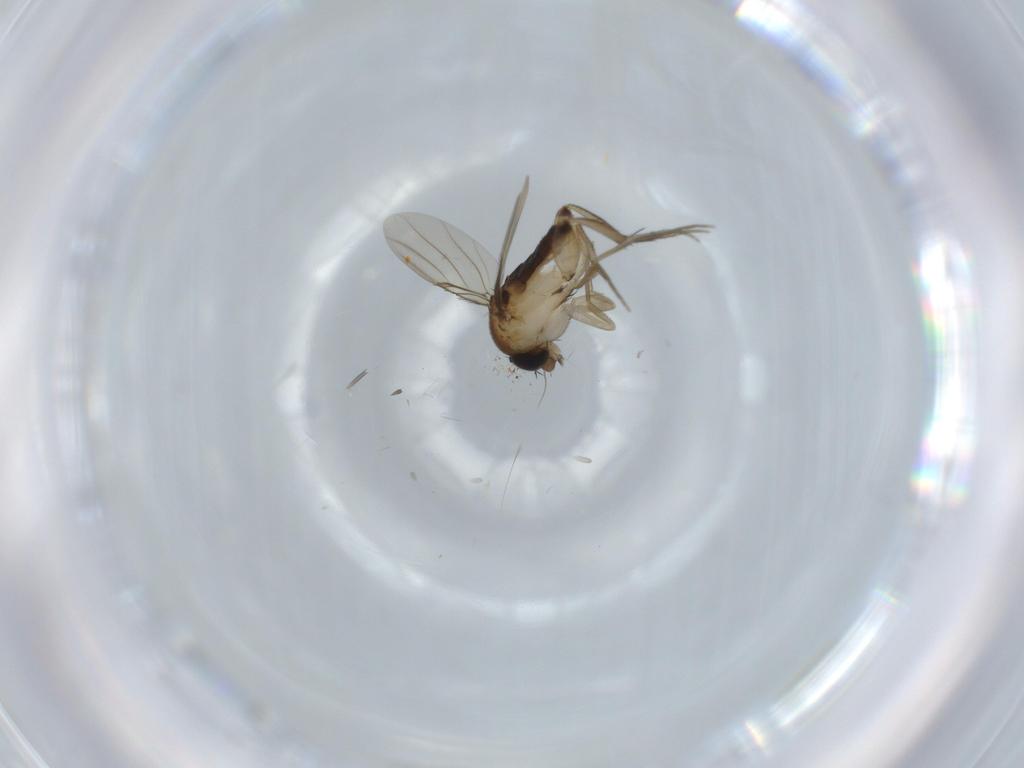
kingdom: Animalia
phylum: Arthropoda
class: Insecta
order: Diptera
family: Phoridae
